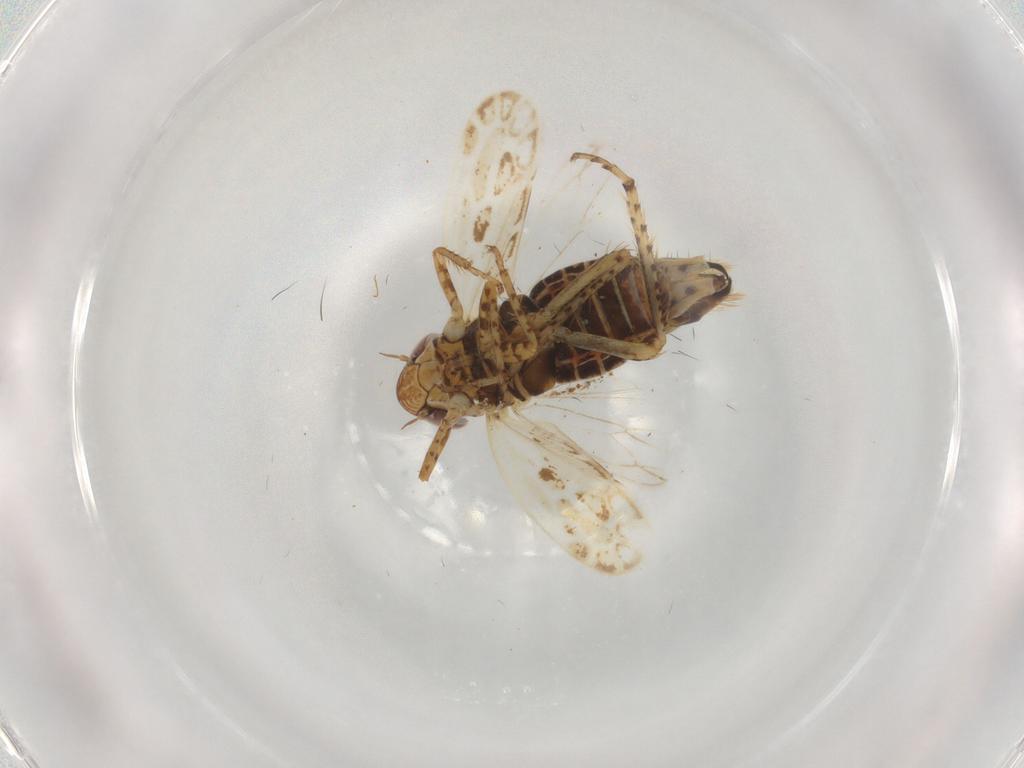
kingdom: Animalia
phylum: Arthropoda
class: Insecta
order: Hemiptera
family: Cicadellidae
